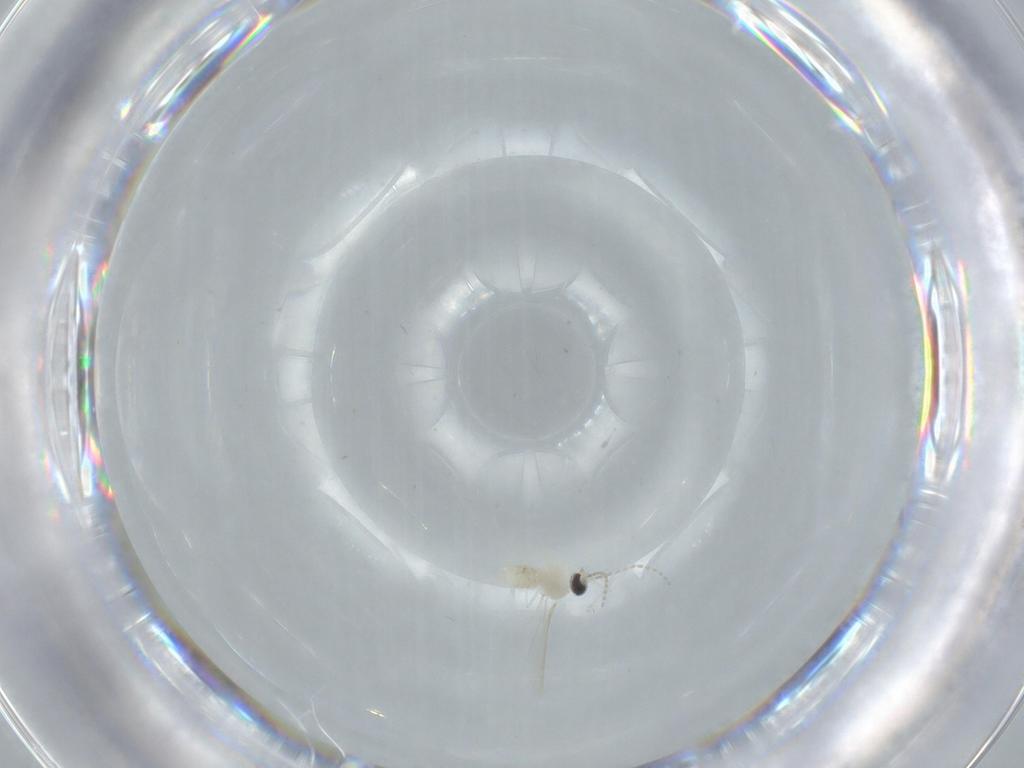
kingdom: Animalia
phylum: Arthropoda
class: Insecta
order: Diptera
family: Cecidomyiidae
